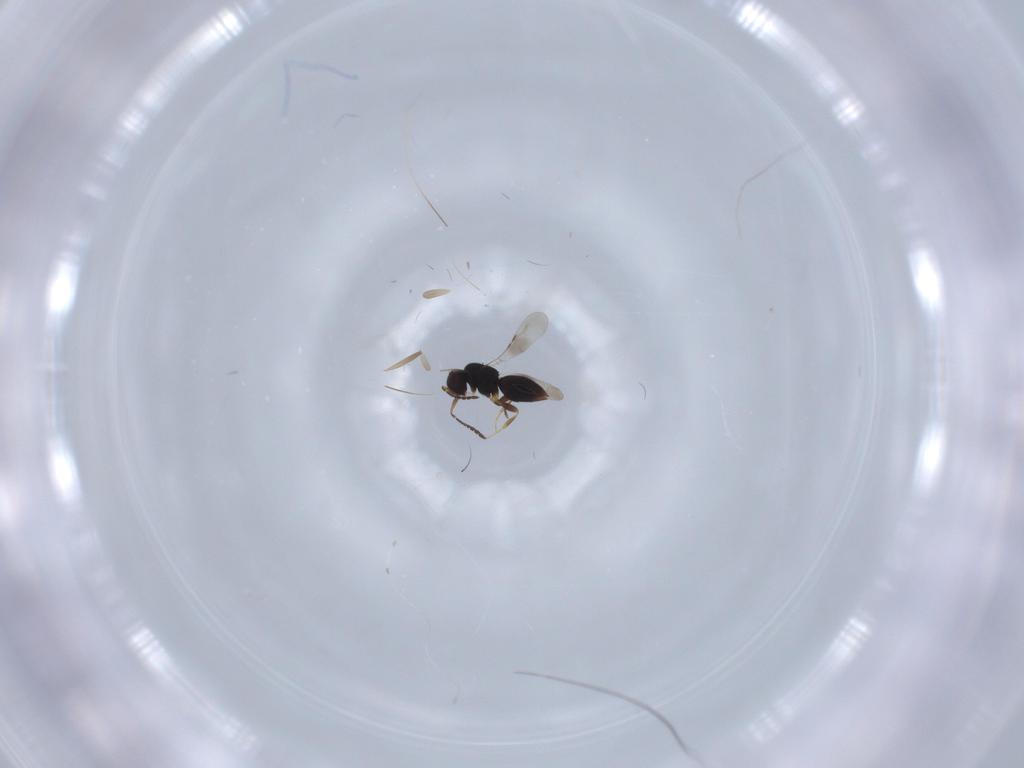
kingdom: Animalia
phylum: Arthropoda
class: Insecta
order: Hymenoptera
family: Ceraphronidae
